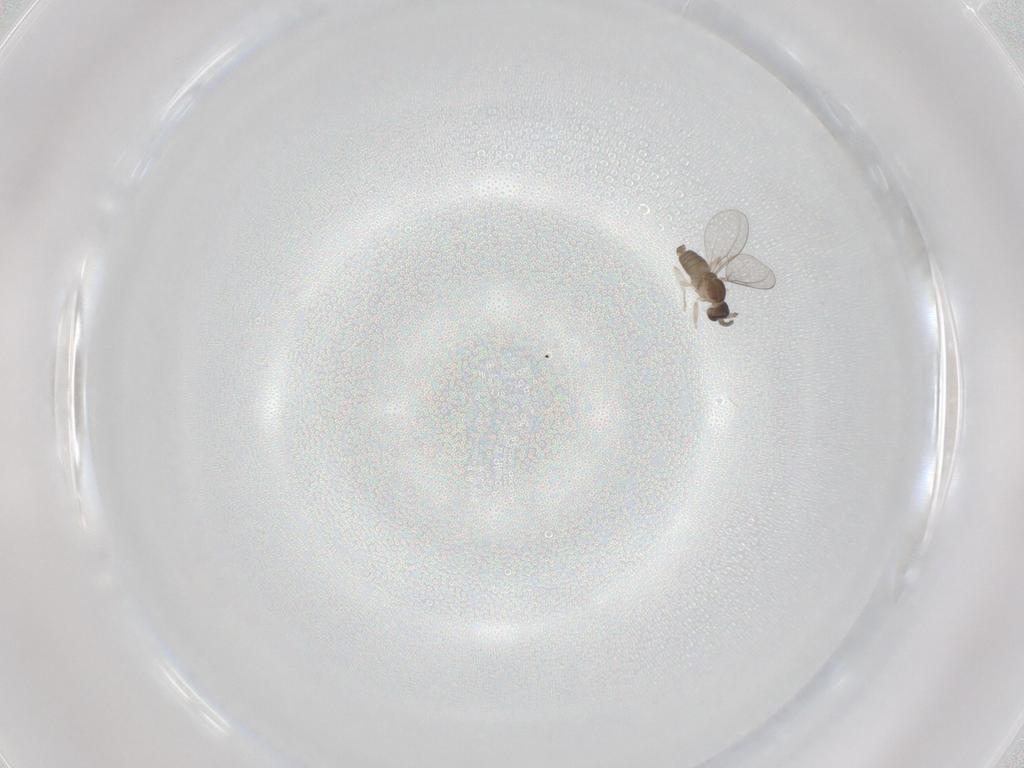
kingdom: Animalia
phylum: Arthropoda
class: Insecta
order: Diptera
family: Cecidomyiidae
